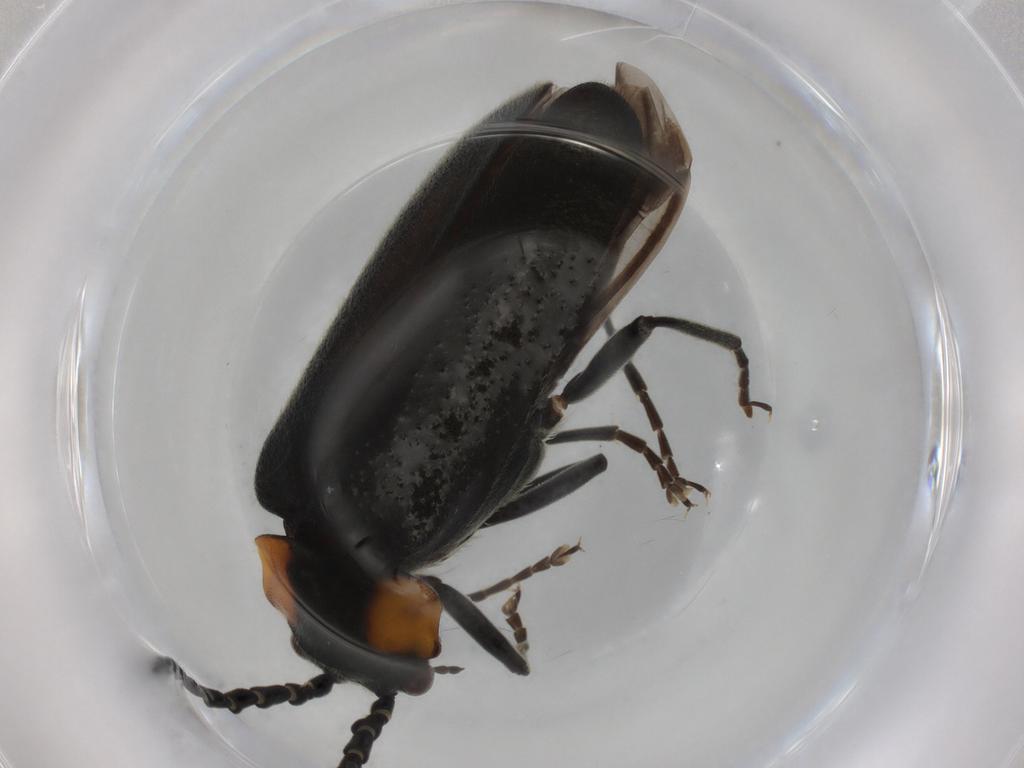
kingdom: Animalia
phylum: Arthropoda
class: Insecta
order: Coleoptera
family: Cantharidae
